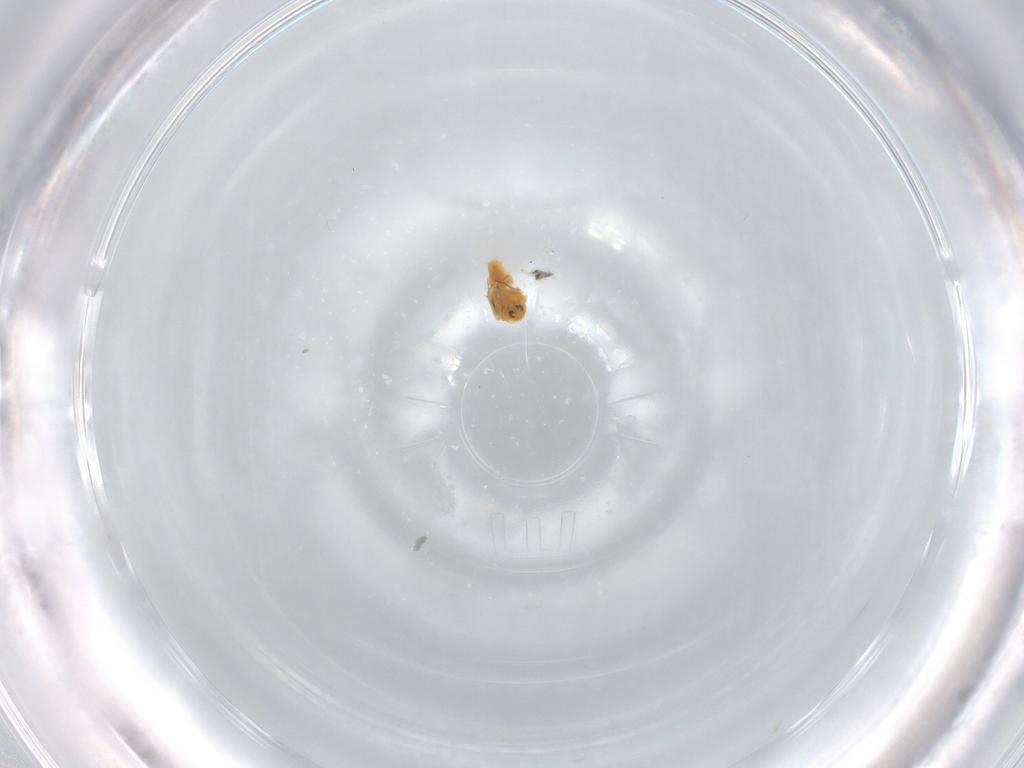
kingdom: Animalia
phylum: Arthropoda
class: Insecta
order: Hemiptera
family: Aleyrodidae
